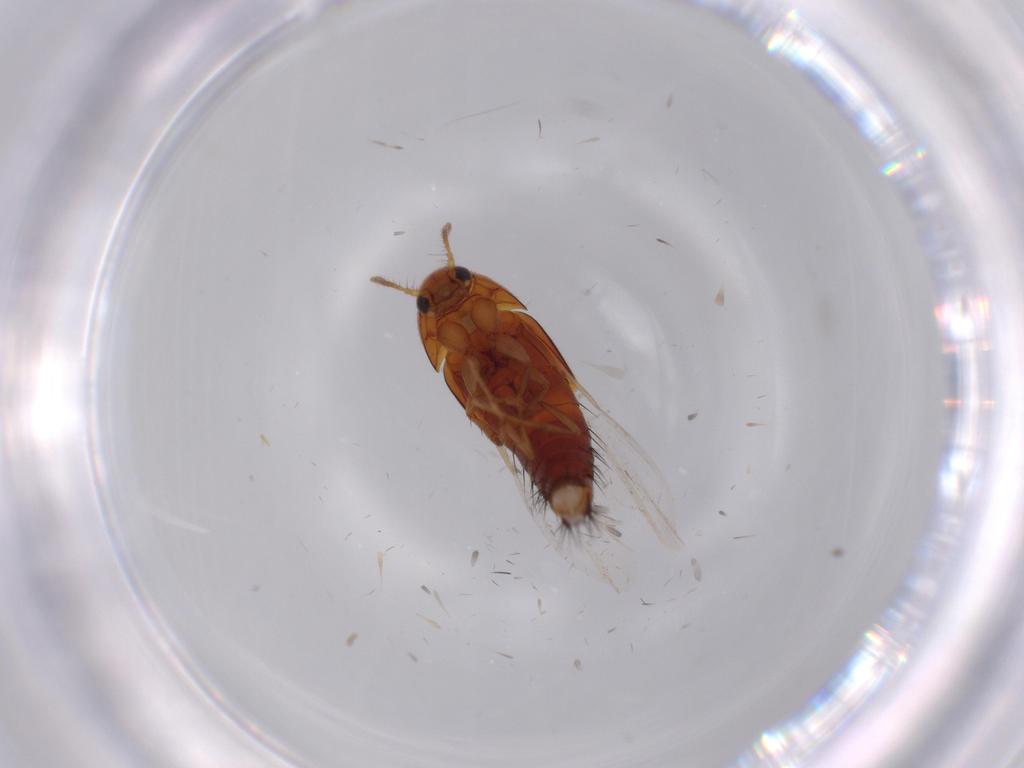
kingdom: Animalia
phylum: Arthropoda
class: Insecta
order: Coleoptera
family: Staphylinidae
